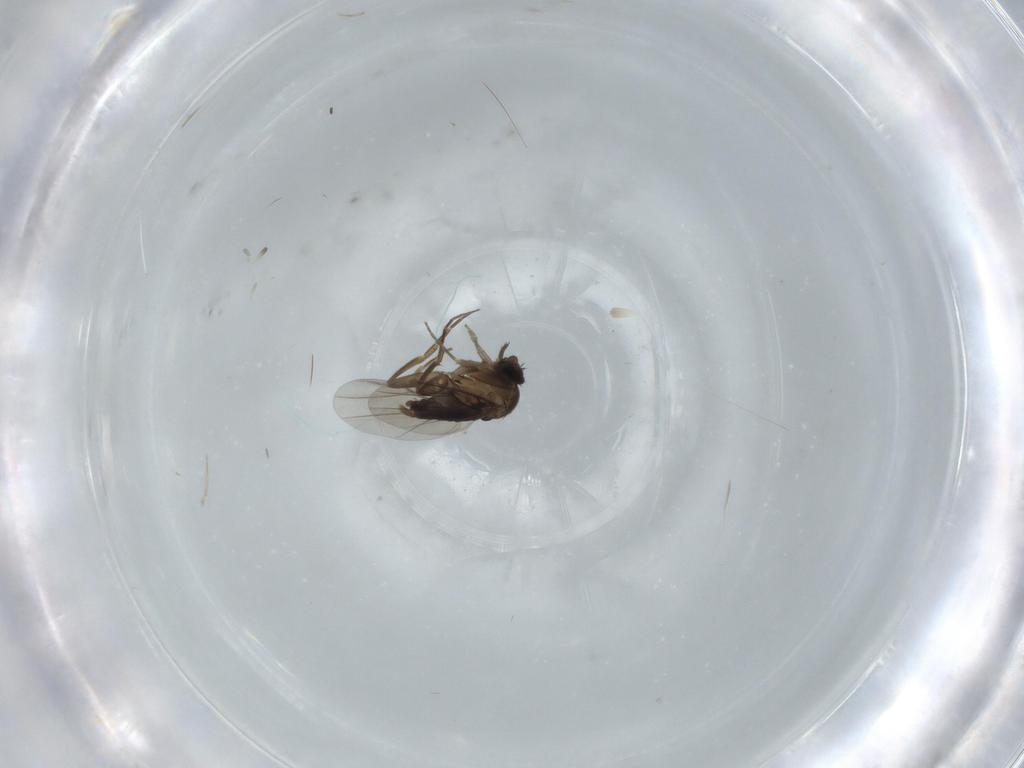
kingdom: Animalia
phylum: Arthropoda
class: Insecta
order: Diptera
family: Phoridae
